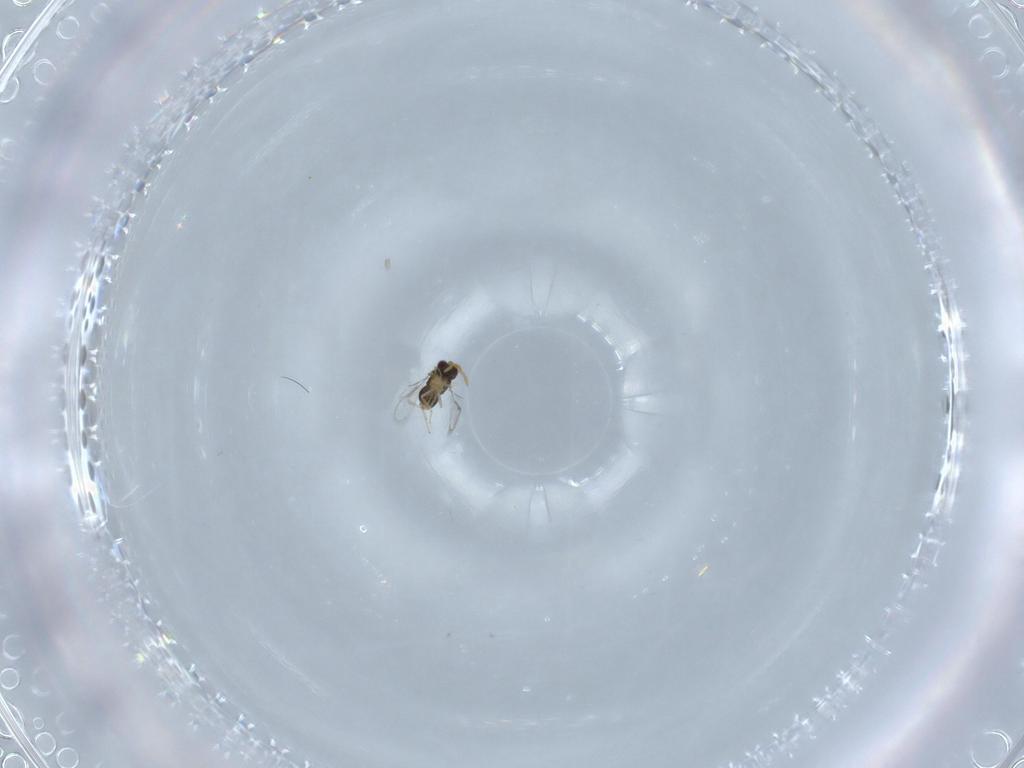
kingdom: Animalia
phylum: Arthropoda
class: Insecta
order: Hymenoptera
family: Aphelinidae
